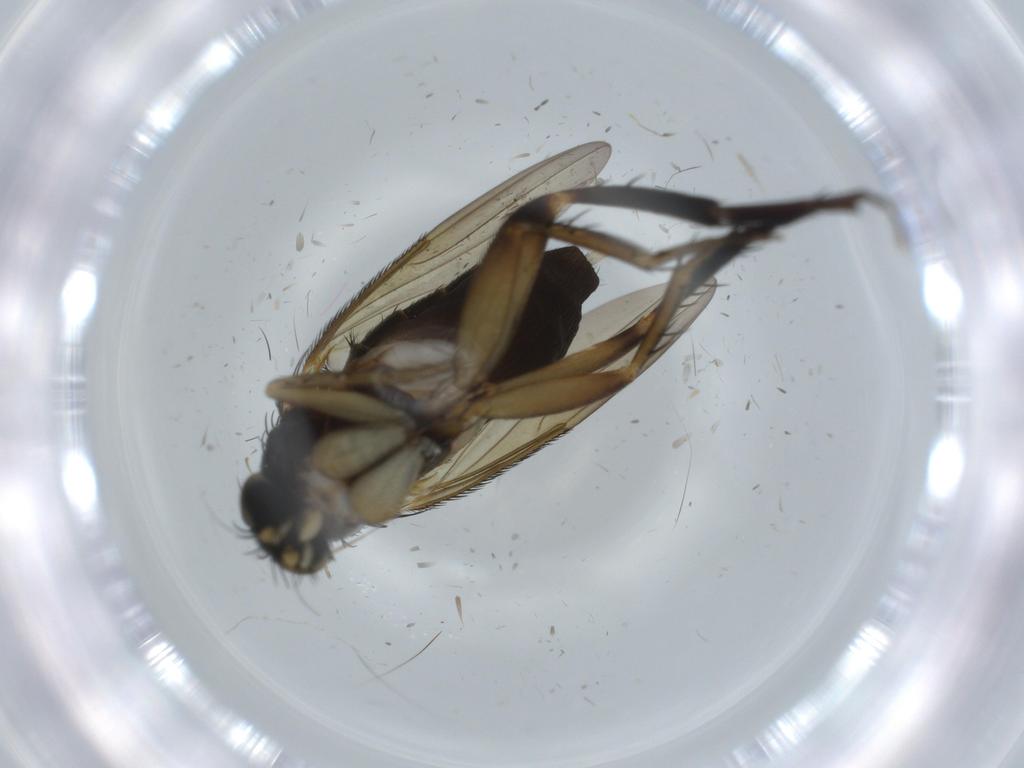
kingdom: Animalia
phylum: Arthropoda
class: Insecta
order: Diptera
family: Phoridae
